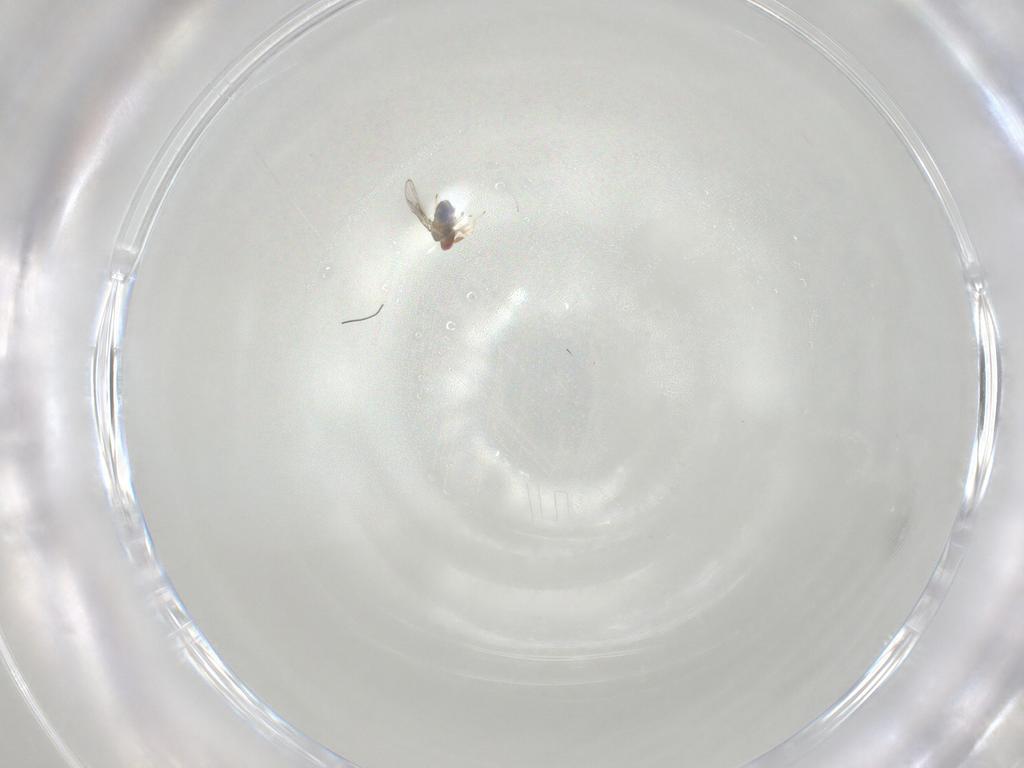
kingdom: Animalia
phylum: Arthropoda
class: Insecta
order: Hymenoptera
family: Trichogrammatidae
